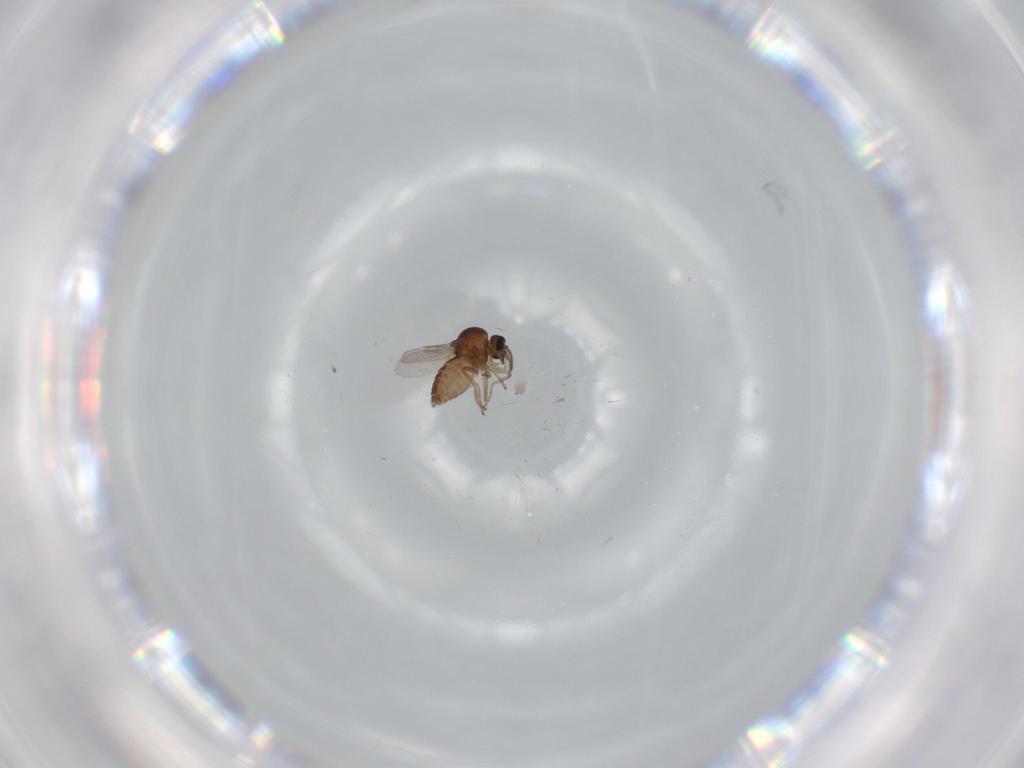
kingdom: Animalia
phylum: Arthropoda
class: Insecta
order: Diptera
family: Ceratopogonidae
